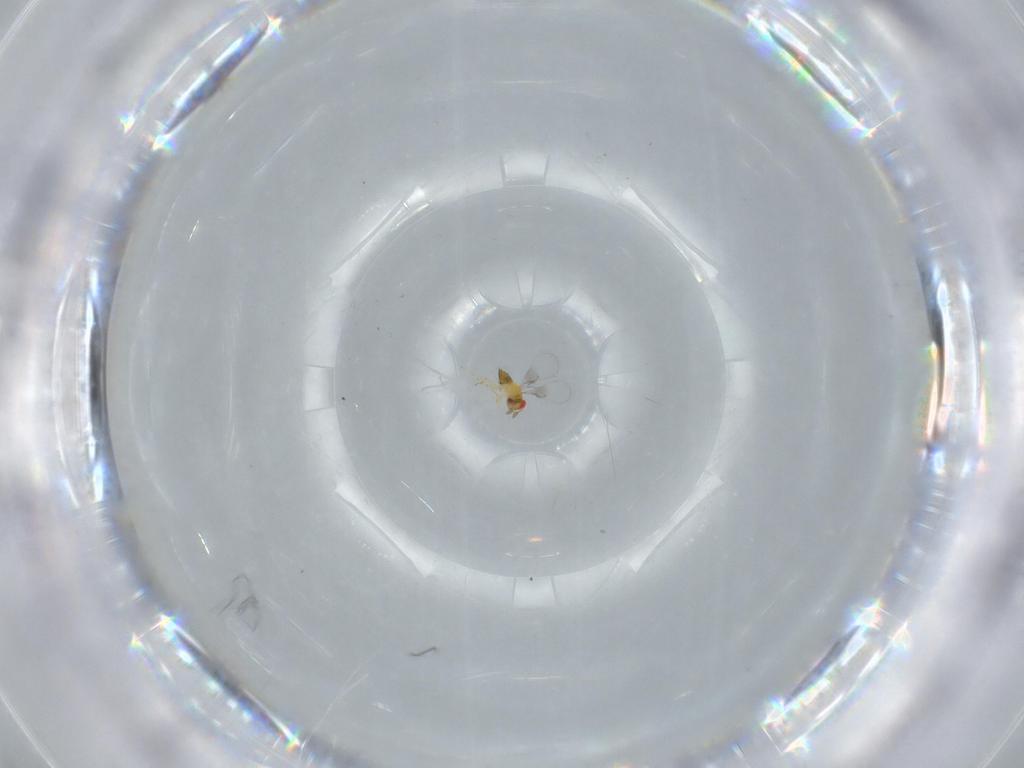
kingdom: Animalia
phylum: Arthropoda
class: Insecta
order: Hymenoptera
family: Trichogrammatidae
